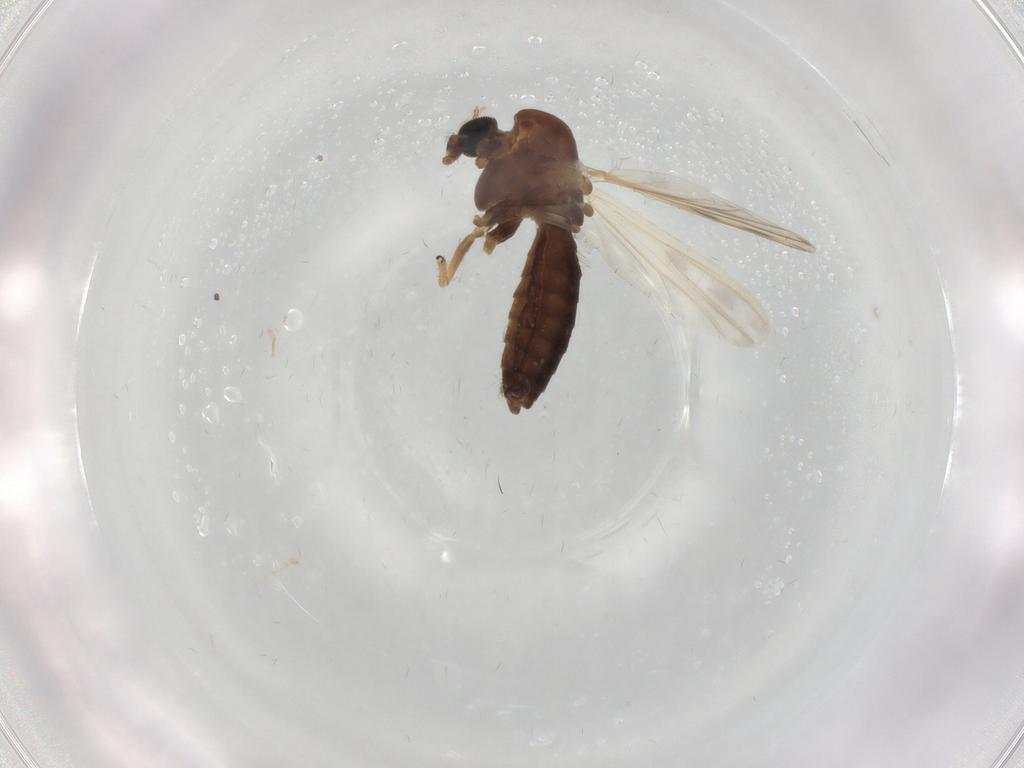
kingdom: Animalia
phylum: Arthropoda
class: Insecta
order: Diptera
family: Chironomidae
